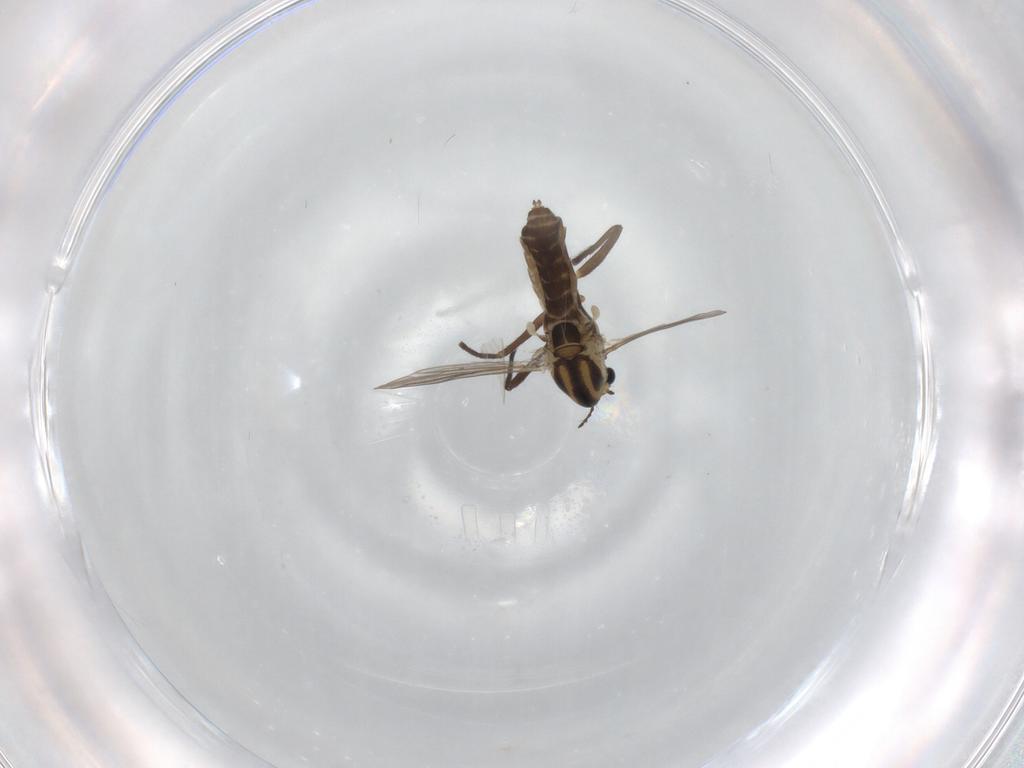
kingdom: Animalia
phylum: Arthropoda
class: Insecta
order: Diptera
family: Chironomidae
